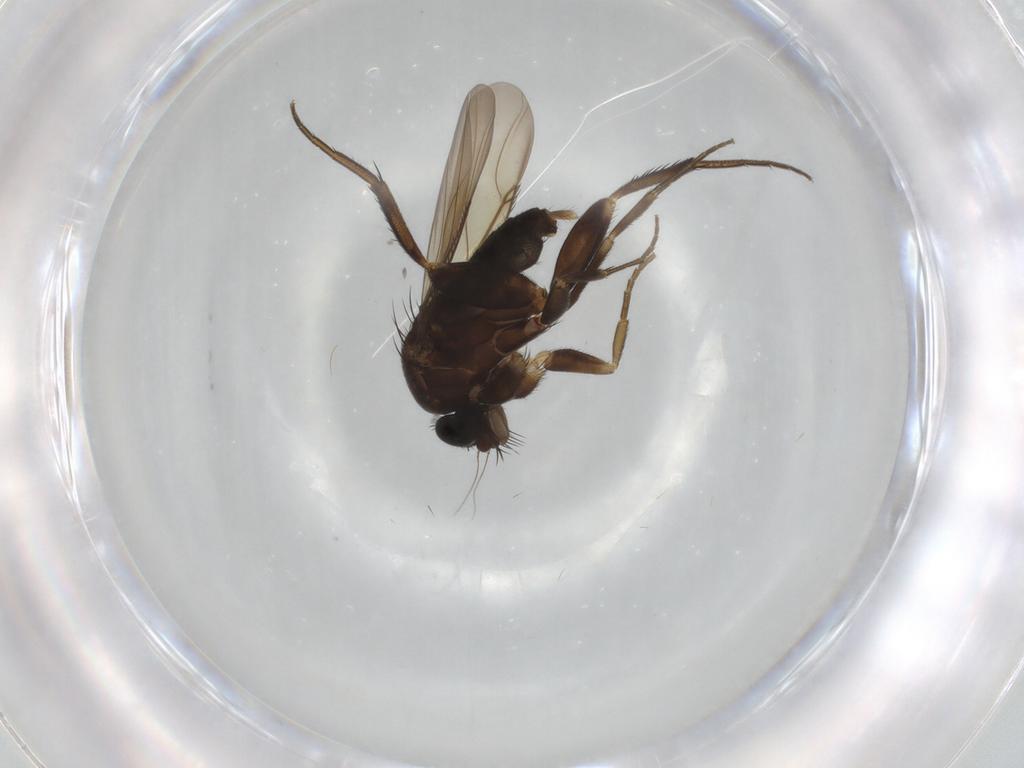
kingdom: Animalia
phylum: Arthropoda
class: Insecta
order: Diptera
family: Phoridae
